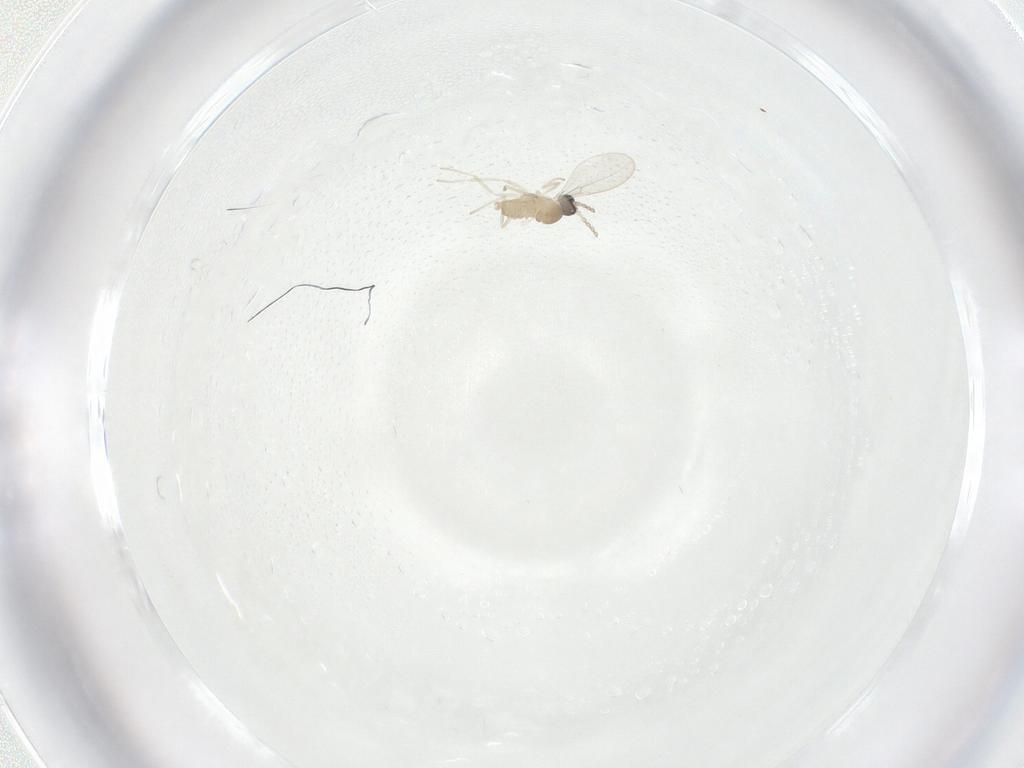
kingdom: Animalia
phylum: Arthropoda
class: Insecta
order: Diptera
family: Cecidomyiidae
